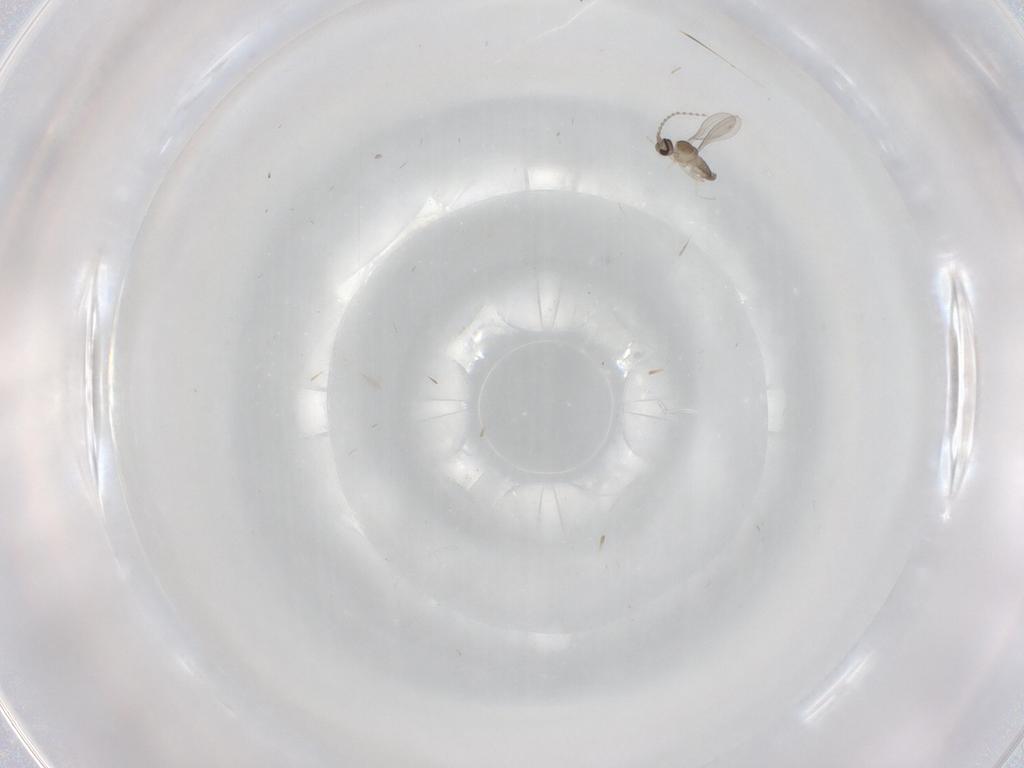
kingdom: Animalia
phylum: Arthropoda
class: Insecta
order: Diptera
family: Cecidomyiidae
